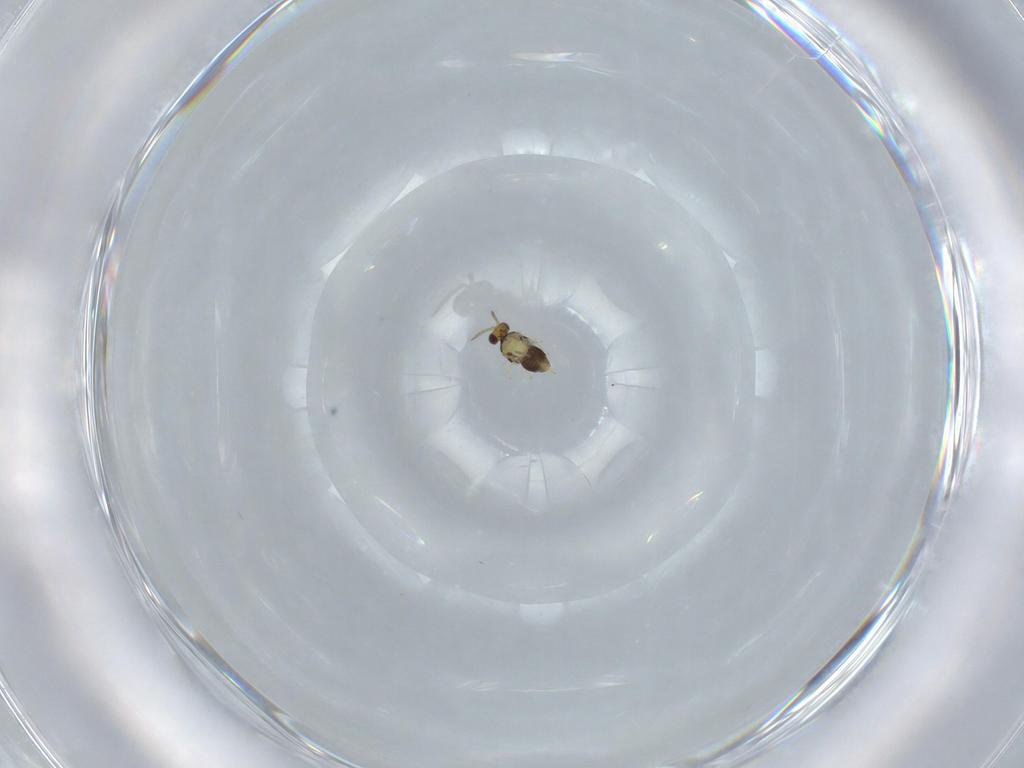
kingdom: Animalia
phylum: Arthropoda
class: Insecta
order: Hymenoptera
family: Aphelinidae
